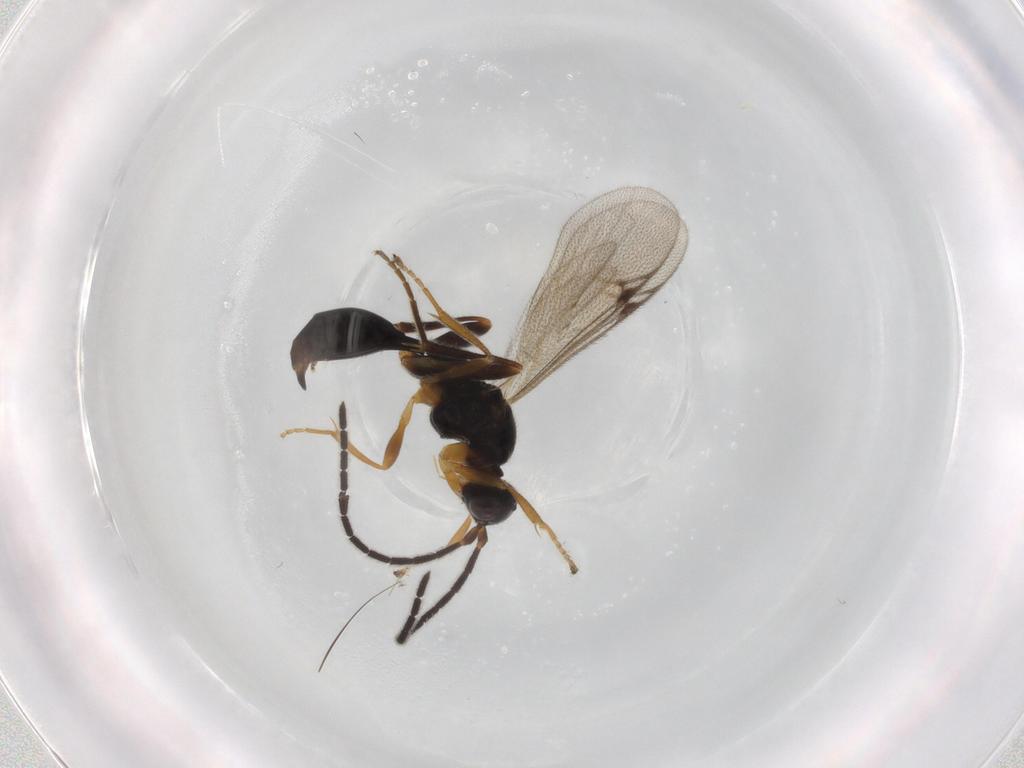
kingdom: Animalia
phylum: Arthropoda
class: Insecta
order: Hymenoptera
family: Proctotrupidae
